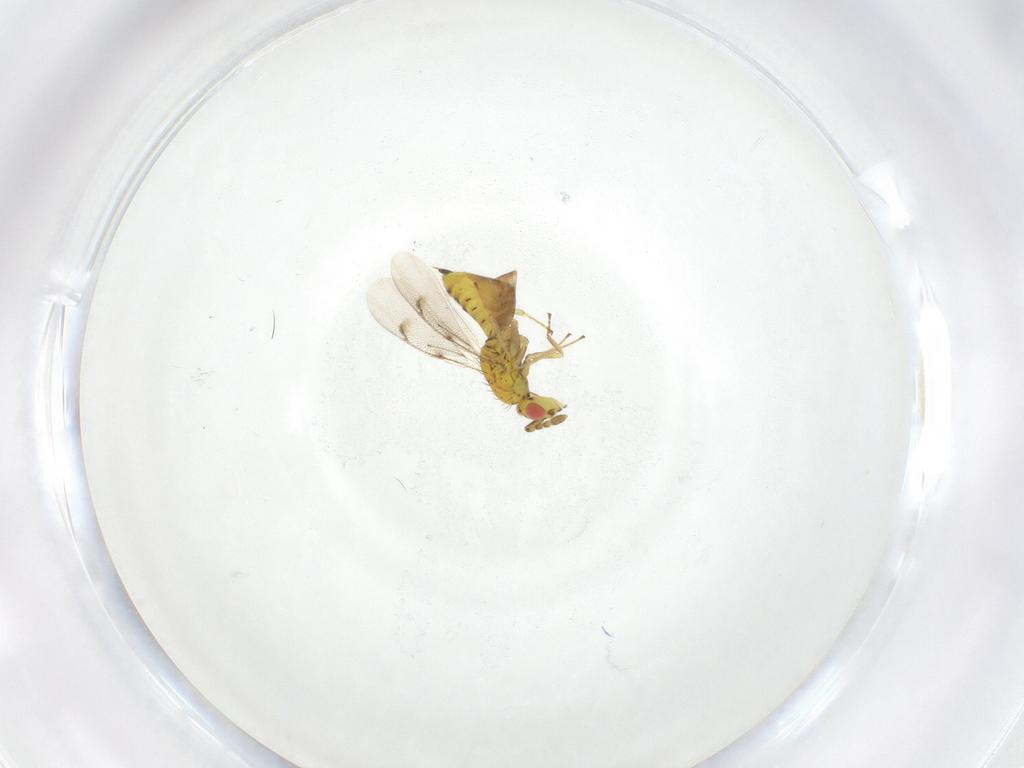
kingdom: Animalia
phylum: Arthropoda
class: Insecta
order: Hymenoptera
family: Eulophidae
